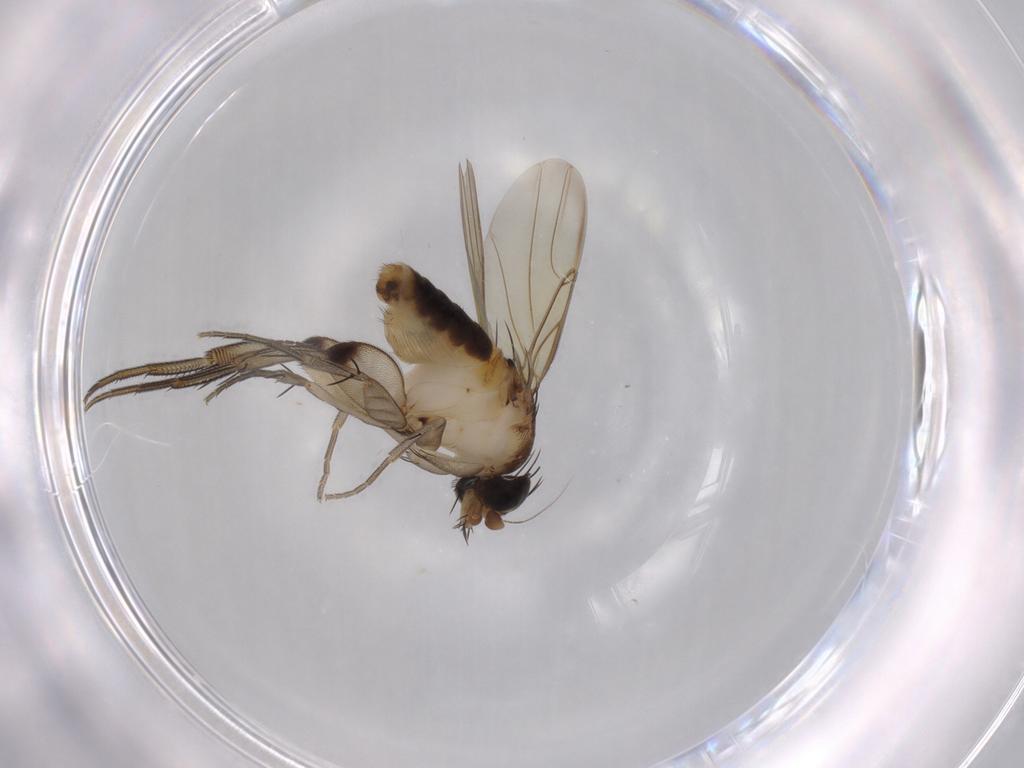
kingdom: Animalia
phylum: Arthropoda
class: Insecta
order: Diptera
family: Phoridae
